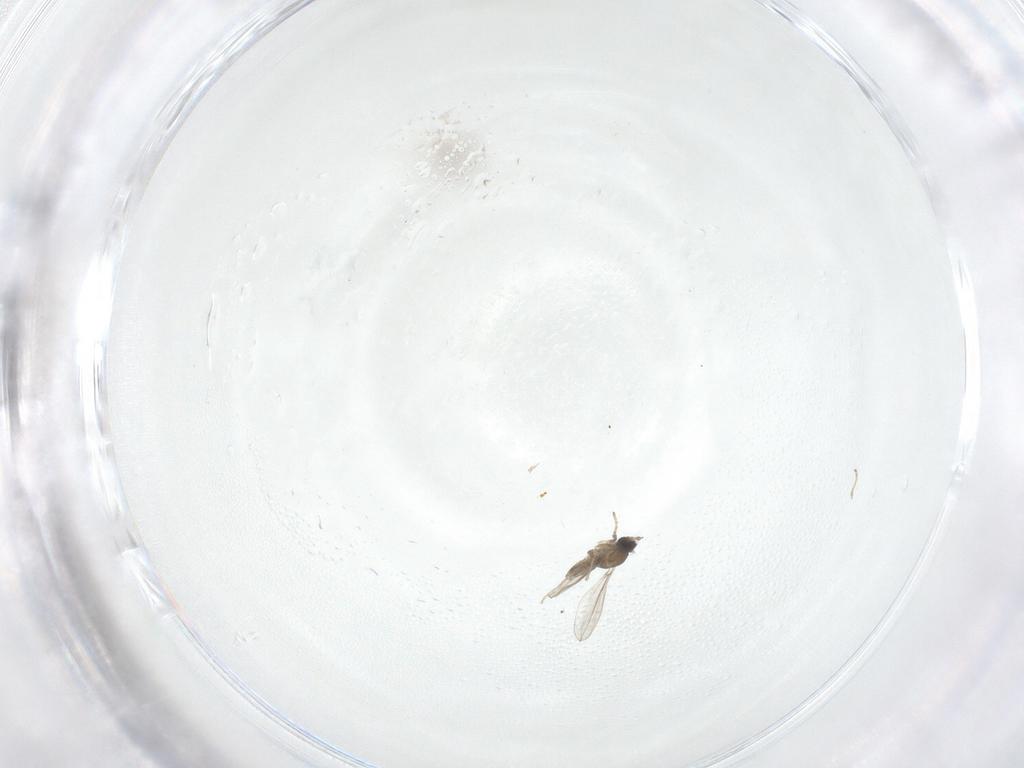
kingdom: Animalia
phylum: Arthropoda
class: Insecta
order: Diptera
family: Cecidomyiidae
